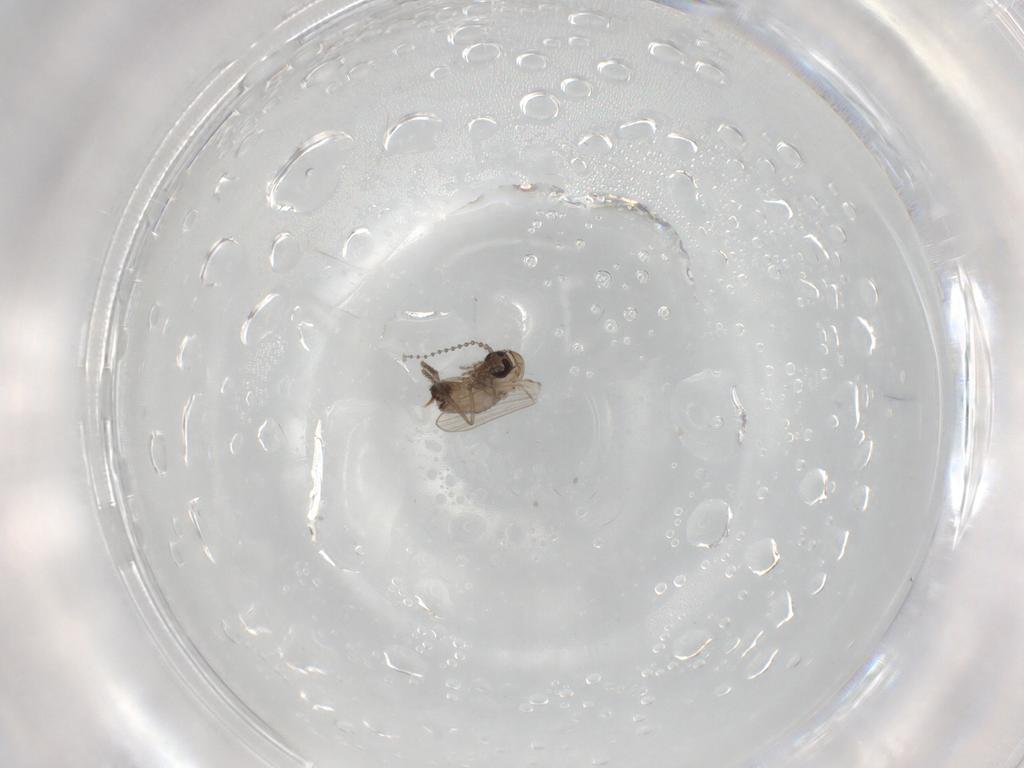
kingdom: Animalia
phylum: Arthropoda
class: Insecta
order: Diptera
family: Psychodidae
